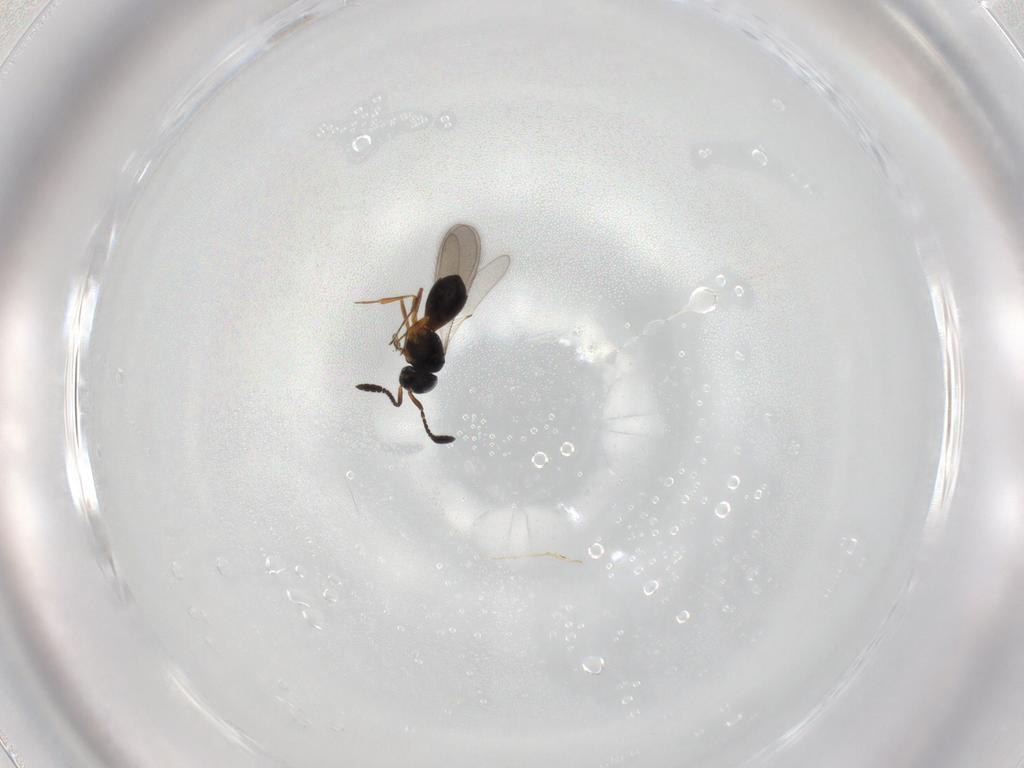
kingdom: Animalia
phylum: Arthropoda
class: Insecta
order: Hymenoptera
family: Scelionidae
